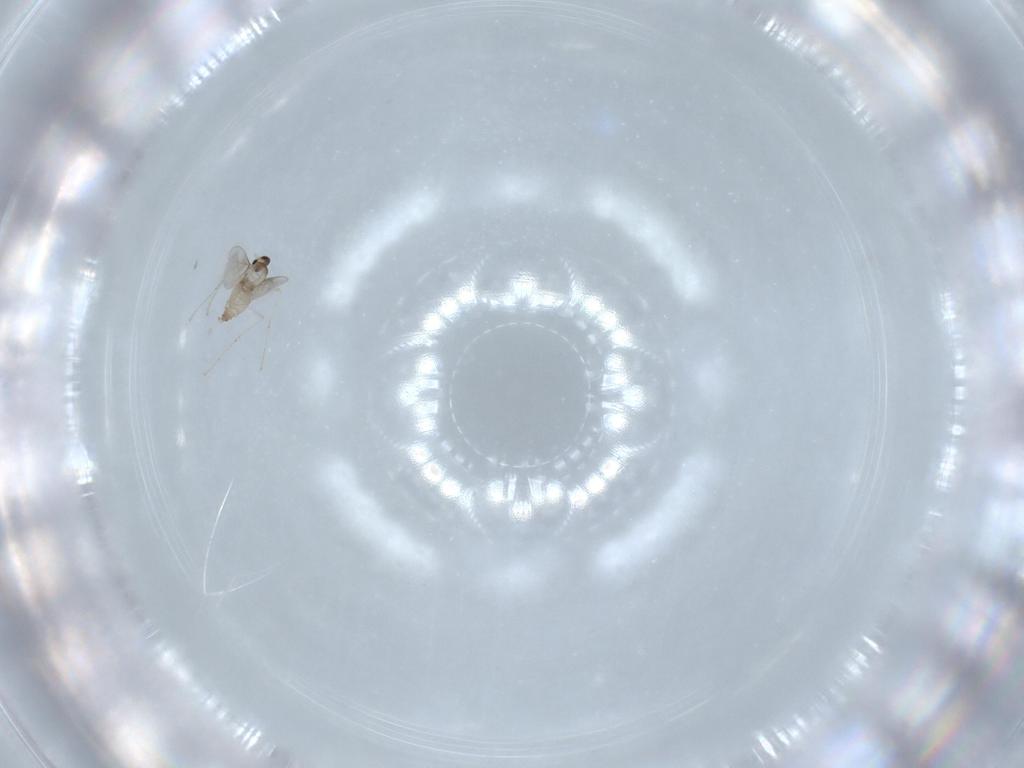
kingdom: Animalia
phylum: Arthropoda
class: Insecta
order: Diptera
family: Cecidomyiidae
